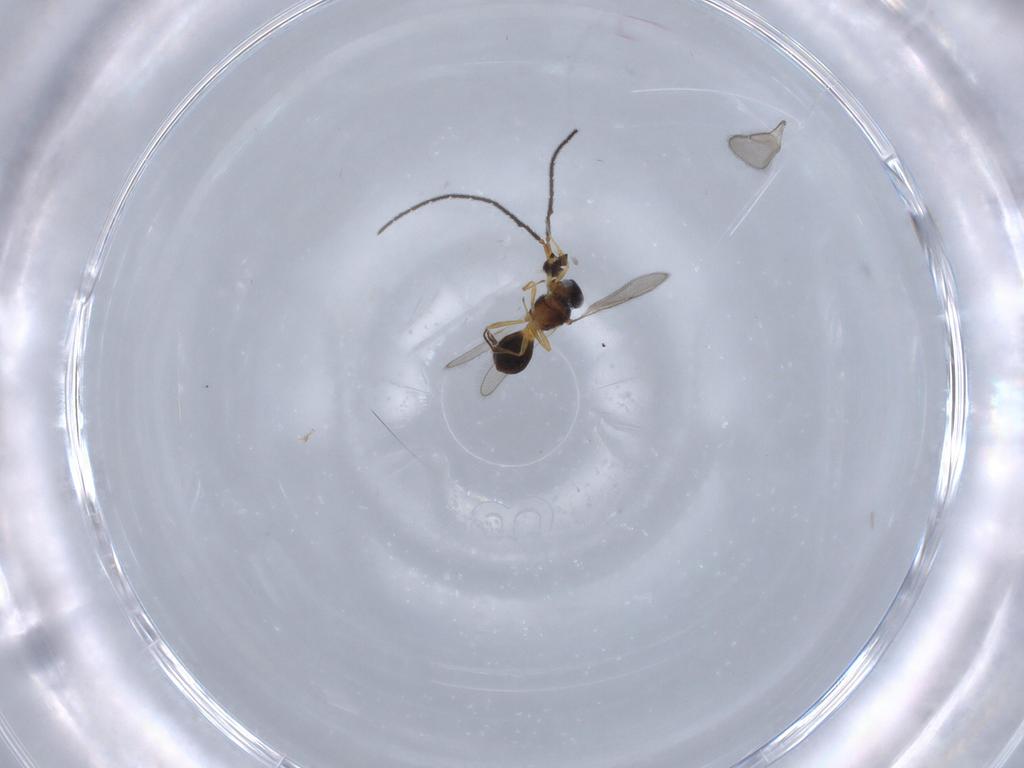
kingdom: Animalia
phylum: Arthropoda
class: Insecta
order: Hymenoptera
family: Scelionidae
